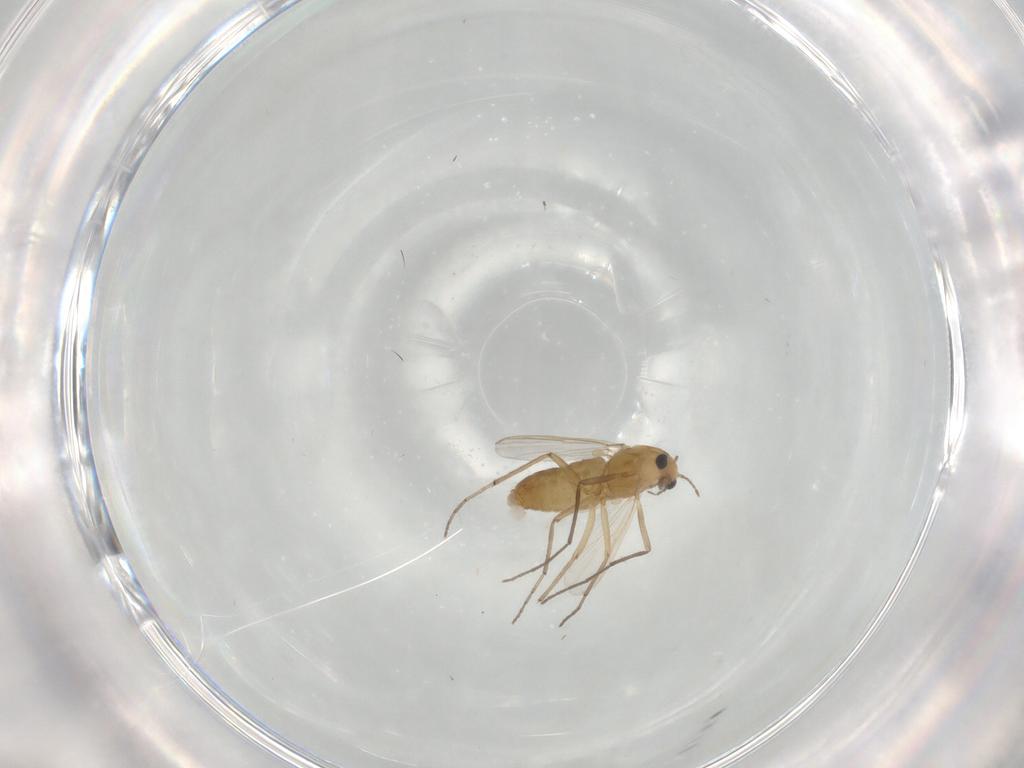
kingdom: Animalia
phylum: Arthropoda
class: Insecta
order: Diptera
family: Chironomidae
